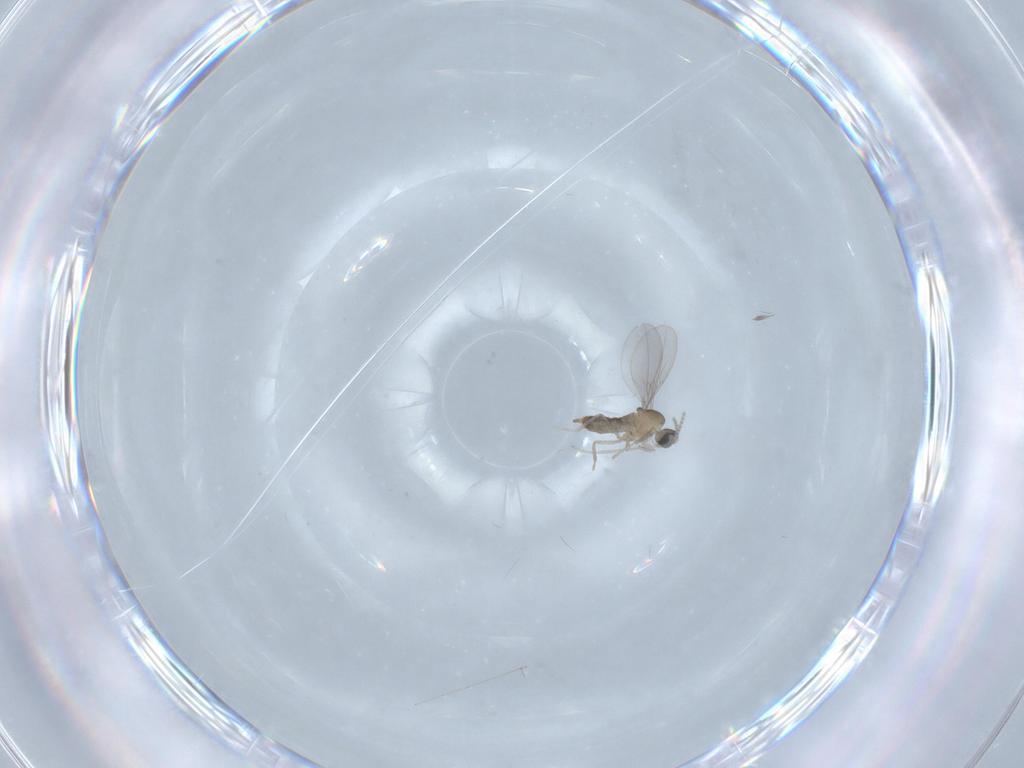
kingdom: Animalia
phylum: Arthropoda
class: Insecta
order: Diptera
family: Cecidomyiidae
